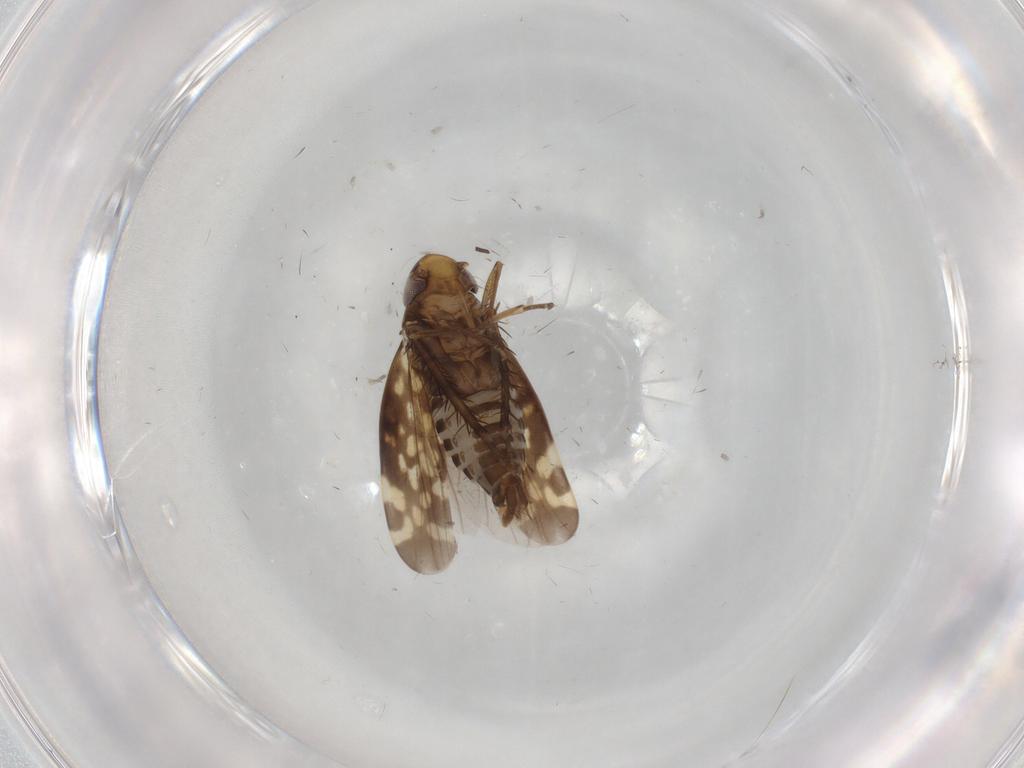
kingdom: Animalia
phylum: Arthropoda
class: Insecta
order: Hemiptera
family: Cicadellidae
